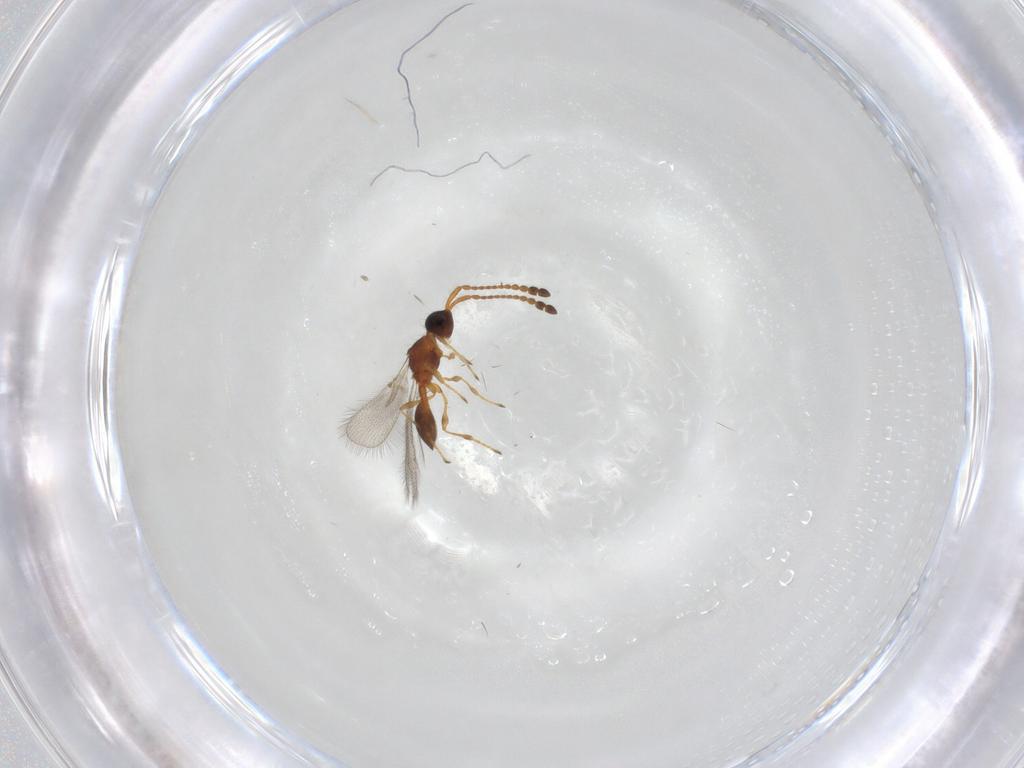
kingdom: Animalia
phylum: Arthropoda
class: Insecta
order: Hymenoptera
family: Diapriidae
